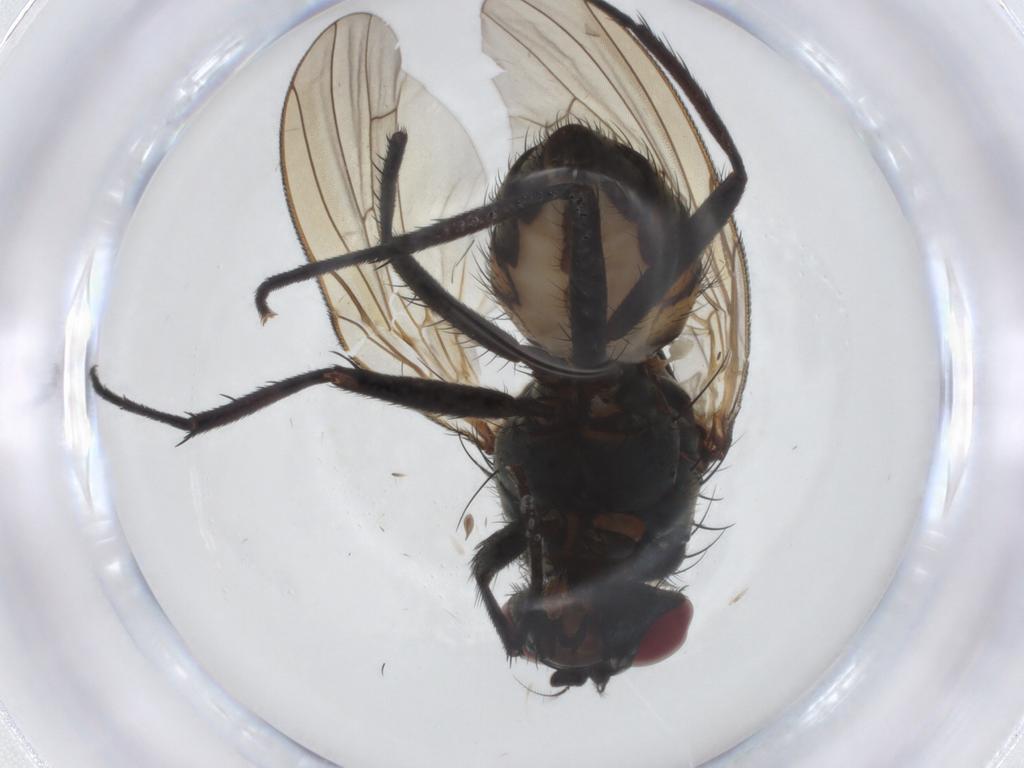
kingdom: Animalia
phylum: Arthropoda
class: Insecta
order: Diptera
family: Anthomyiidae
